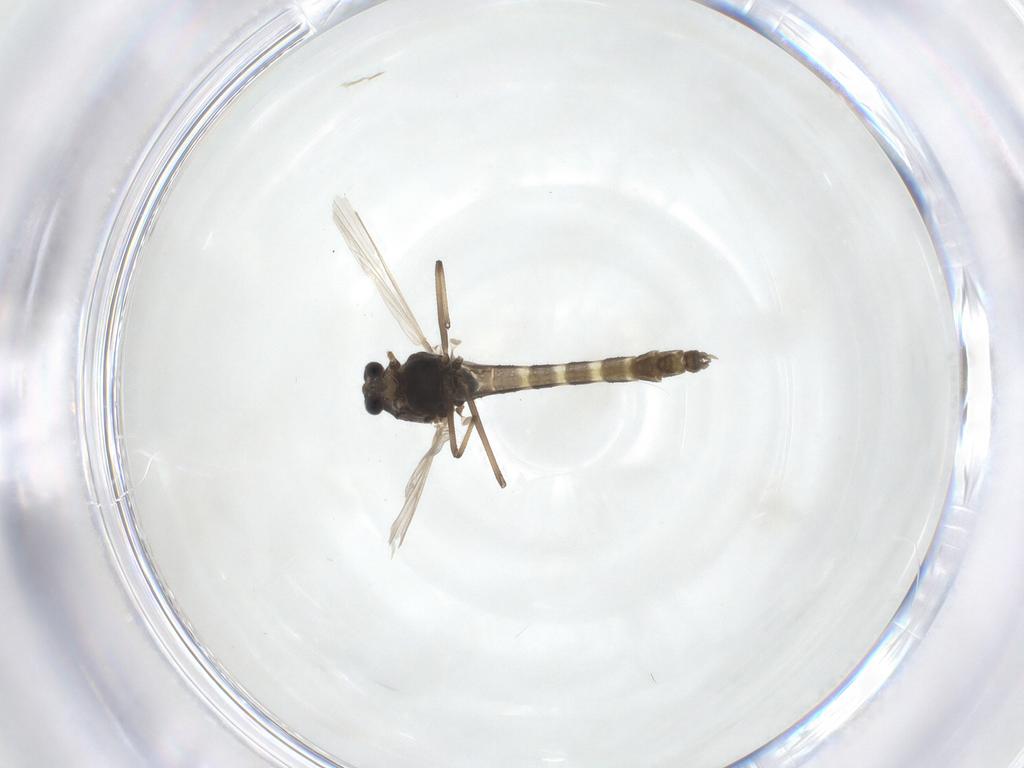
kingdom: Animalia
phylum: Arthropoda
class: Insecta
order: Diptera
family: Chironomidae
